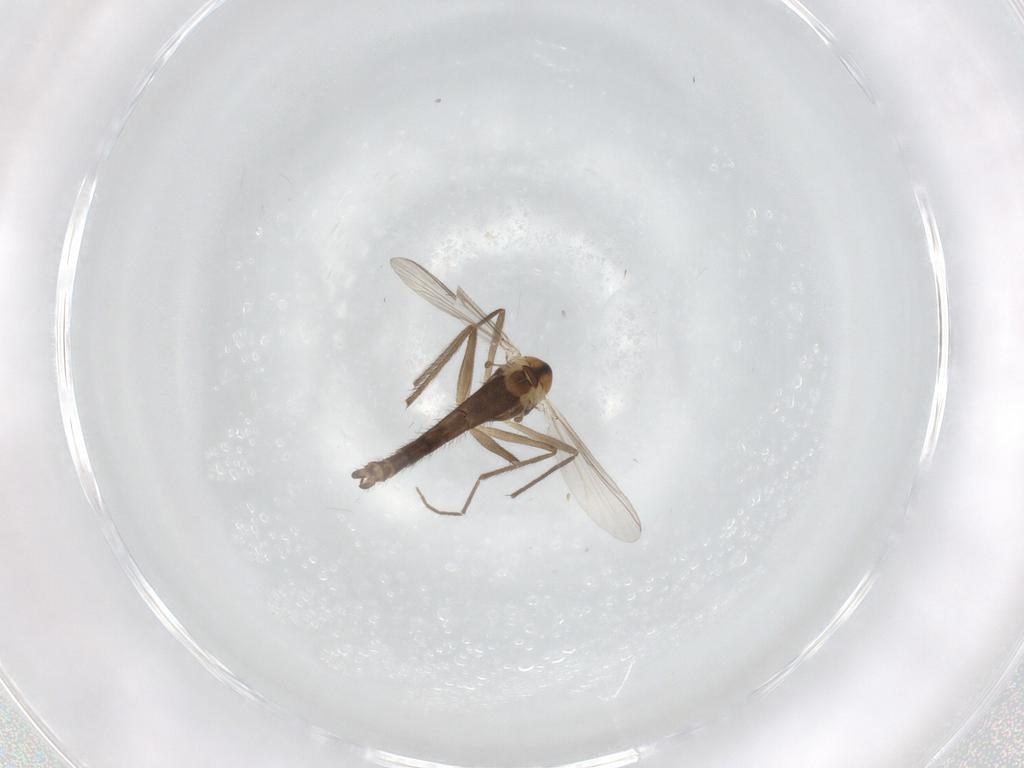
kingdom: Animalia
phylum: Arthropoda
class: Insecta
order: Diptera
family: Chironomidae
